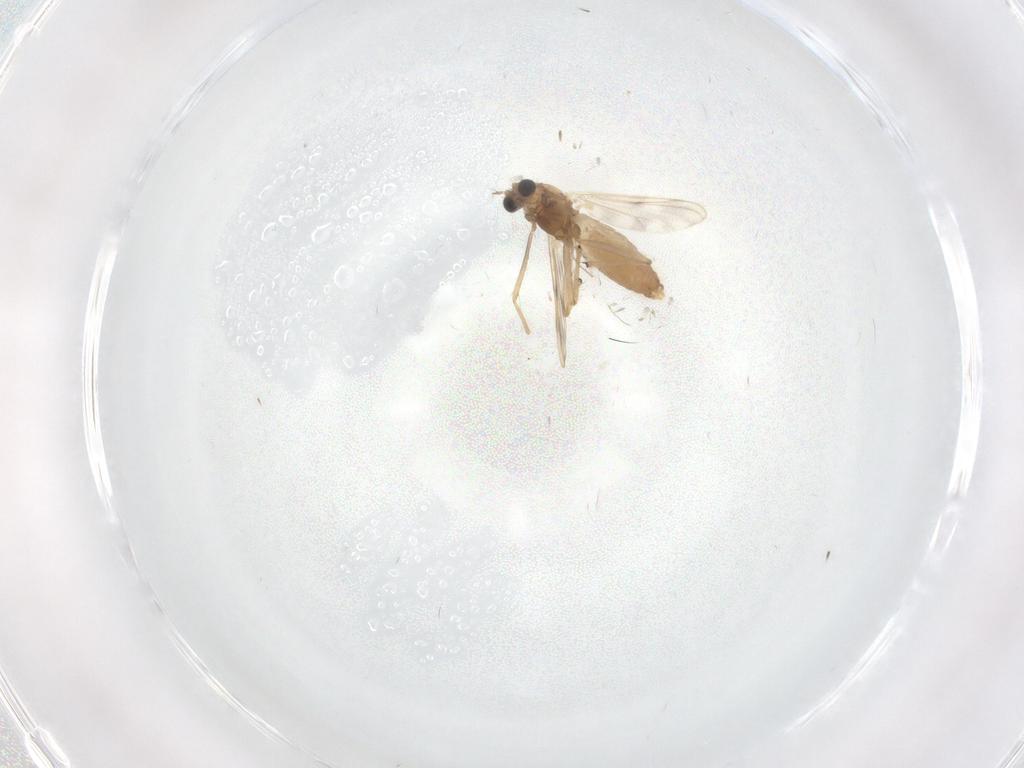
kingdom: Animalia
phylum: Arthropoda
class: Insecta
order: Diptera
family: Chironomidae
